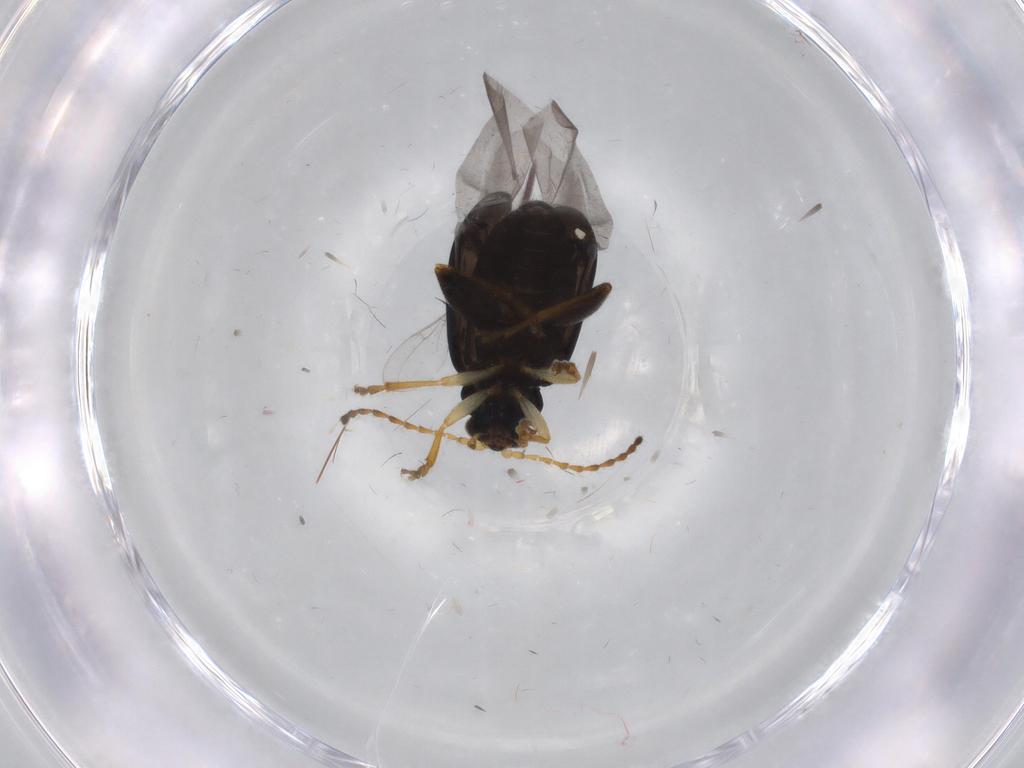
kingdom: Animalia
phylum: Arthropoda
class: Insecta
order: Coleoptera
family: Chrysomelidae
